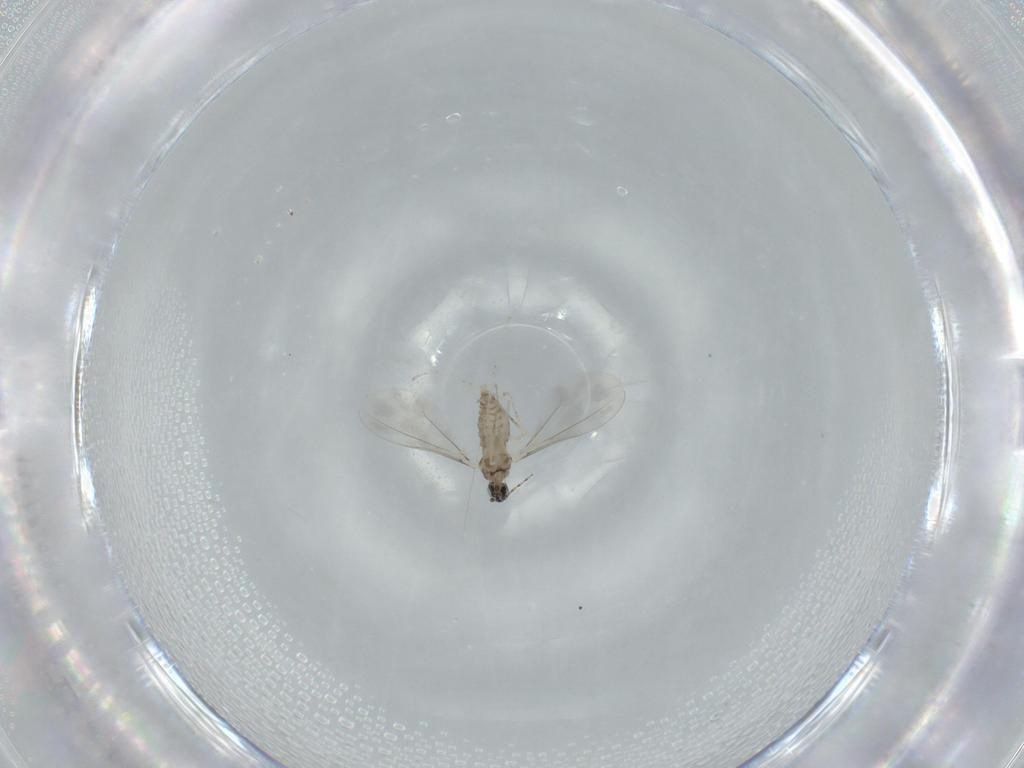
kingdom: Animalia
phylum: Arthropoda
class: Insecta
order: Diptera
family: Cecidomyiidae
